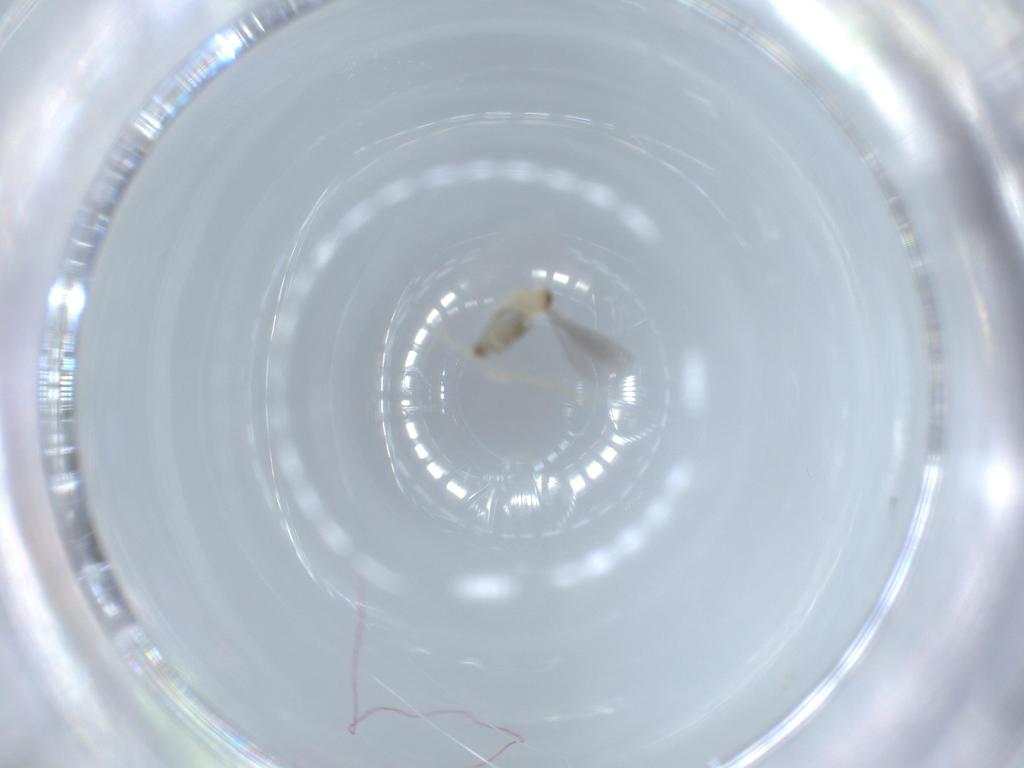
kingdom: Animalia
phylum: Arthropoda
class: Insecta
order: Diptera
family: Cecidomyiidae
